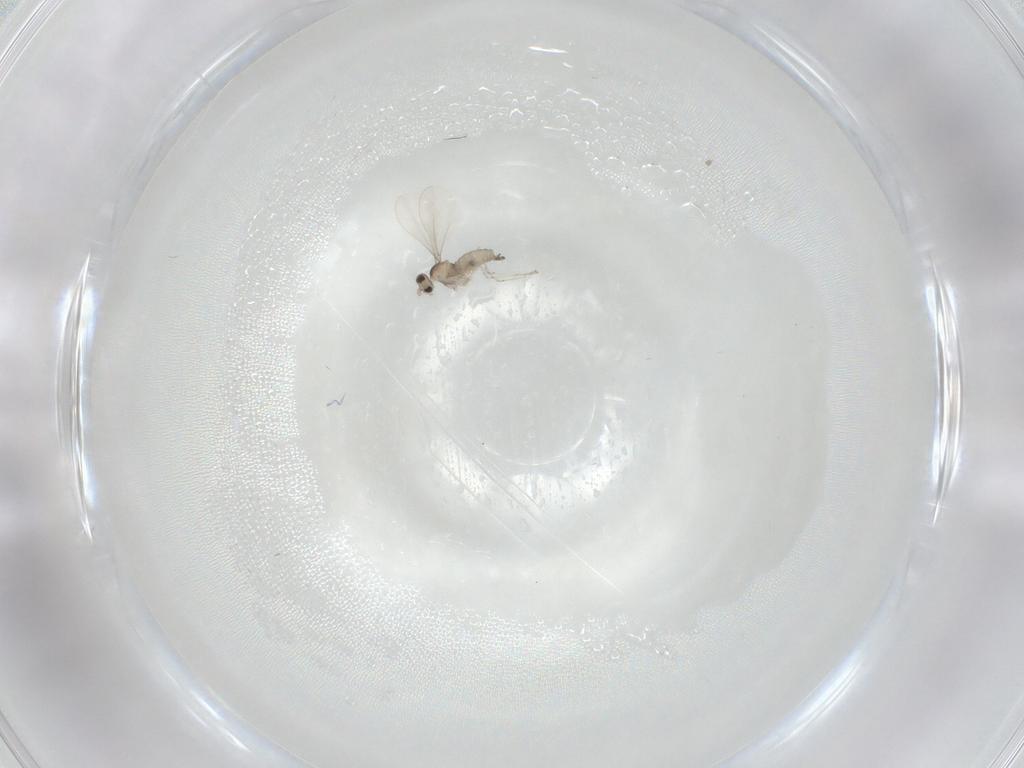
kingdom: Animalia
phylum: Arthropoda
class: Insecta
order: Diptera
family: Cecidomyiidae
